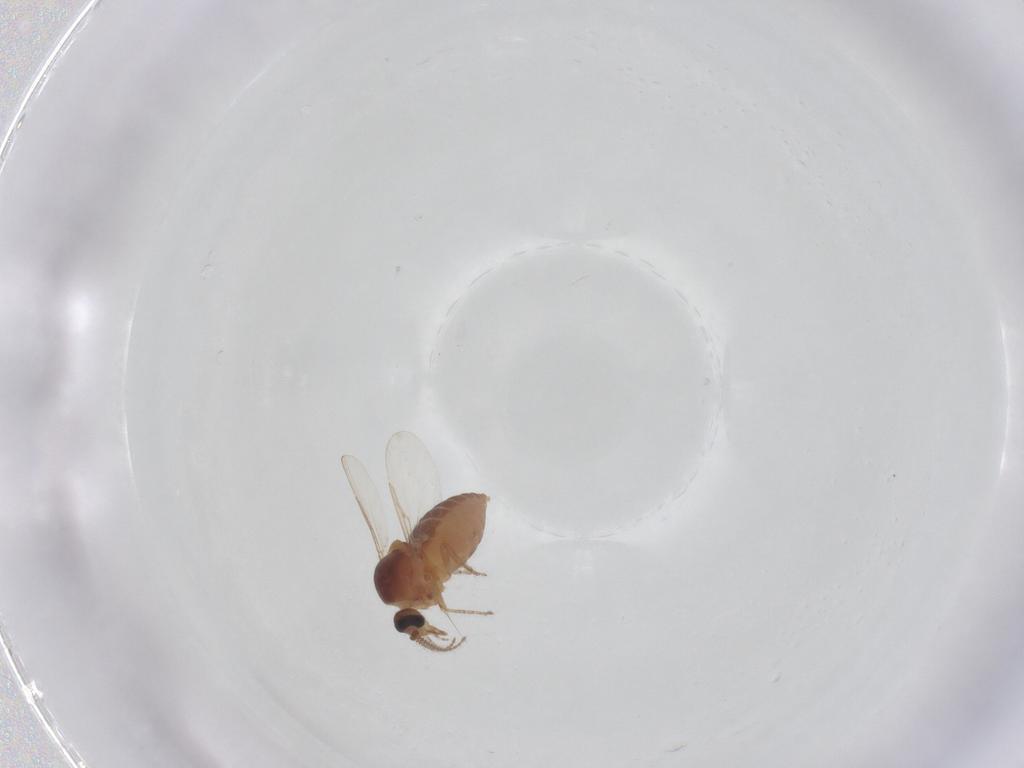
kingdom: Animalia
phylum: Arthropoda
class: Insecta
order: Diptera
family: Ceratopogonidae
